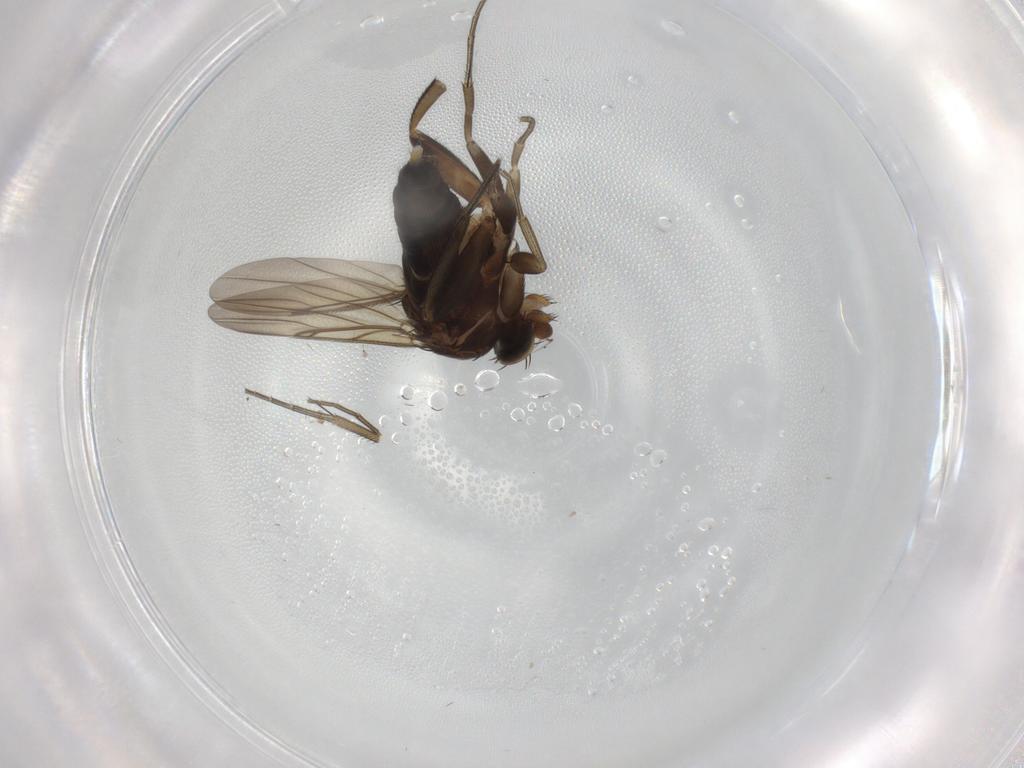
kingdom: Animalia
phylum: Arthropoda
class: Insecta
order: Diptera
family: Phoridae
